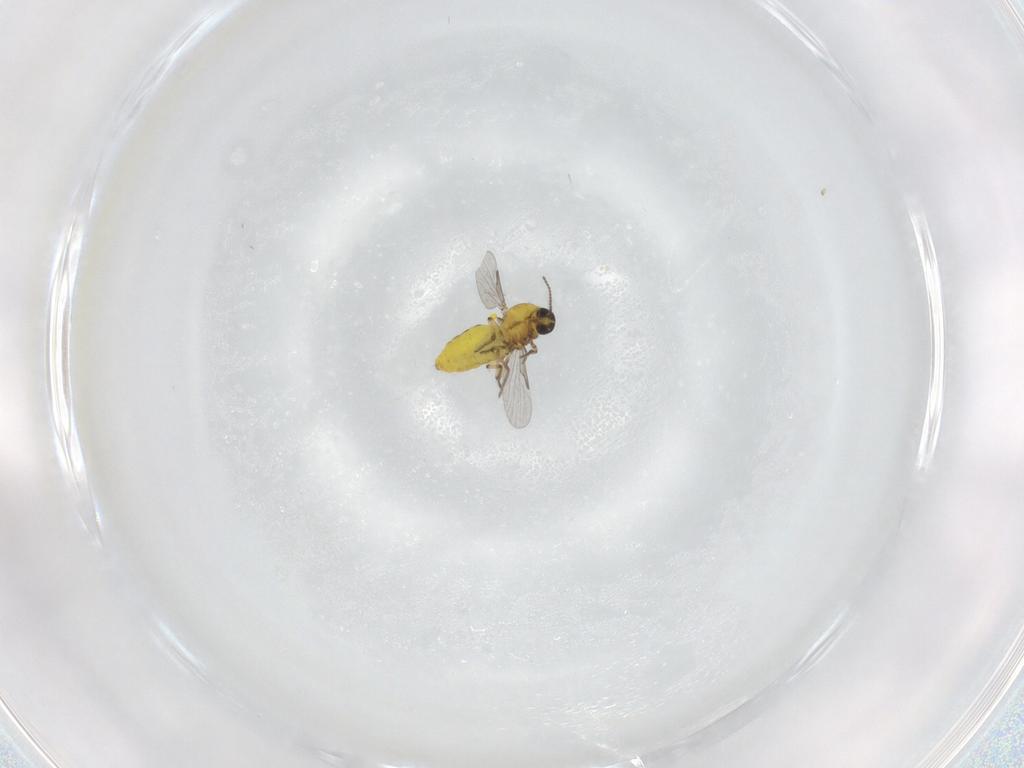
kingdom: Animalia
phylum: Arthropoda
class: Insecta
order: Diptera
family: Ceratopogonidae
